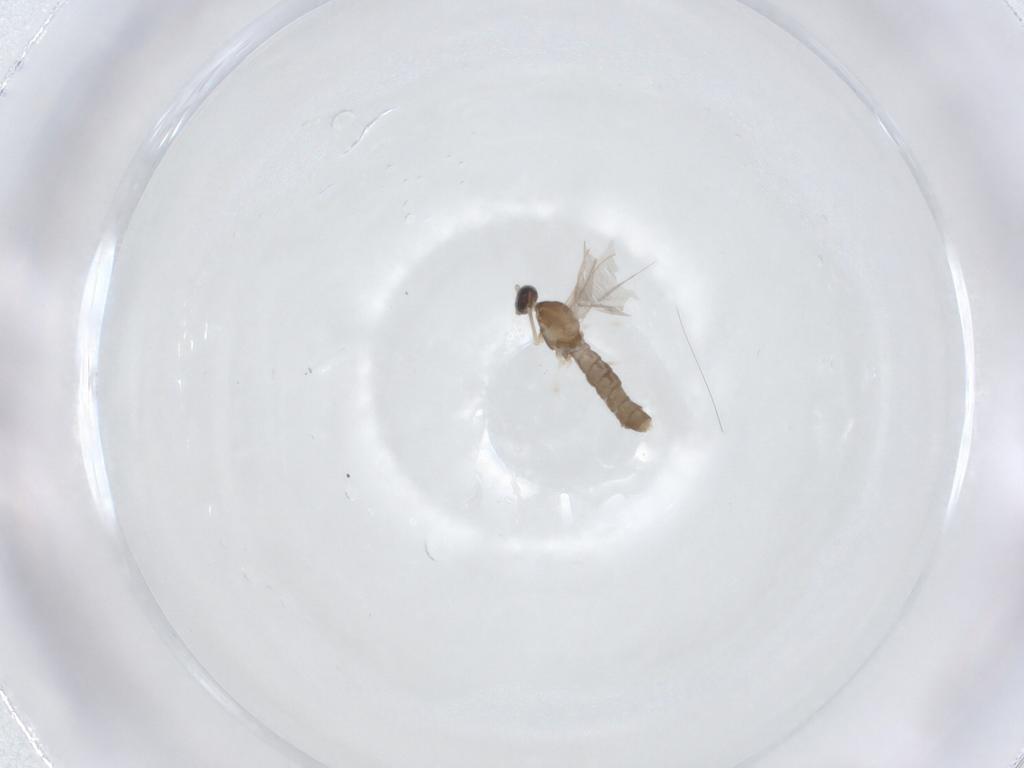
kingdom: Animalia
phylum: Arthropoda
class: Insecta
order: Diptera
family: Cecidomyiidae
